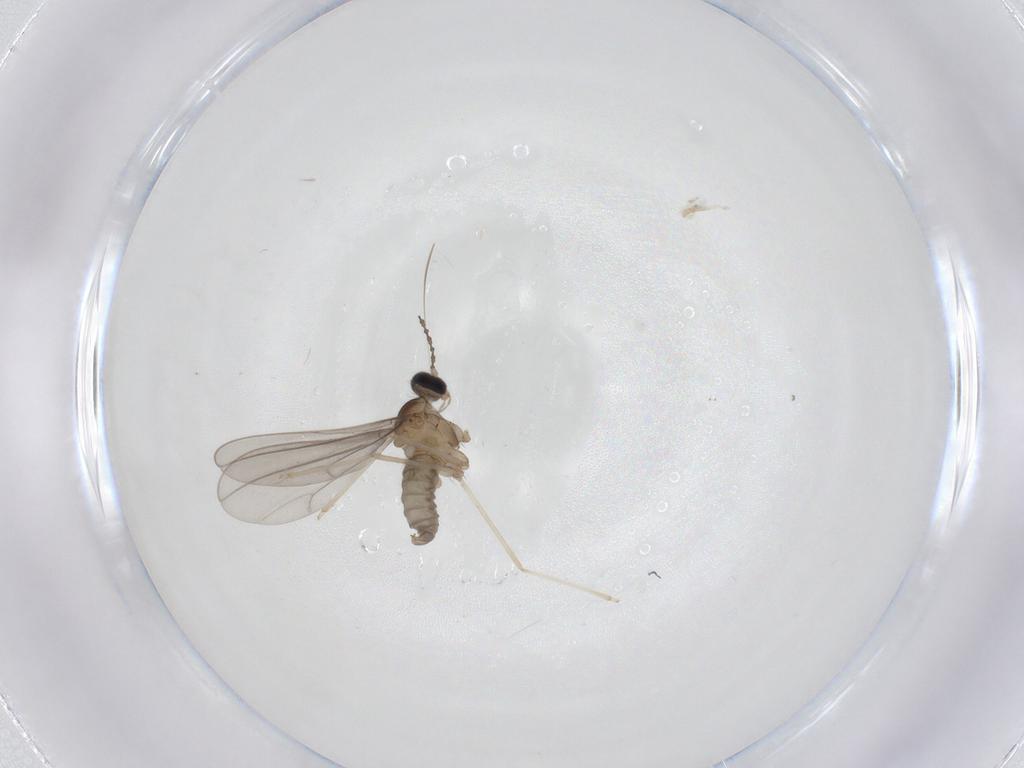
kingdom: Animalia
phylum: Arthropoda
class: Insecta
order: Diptera
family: Cecidomyiidae
